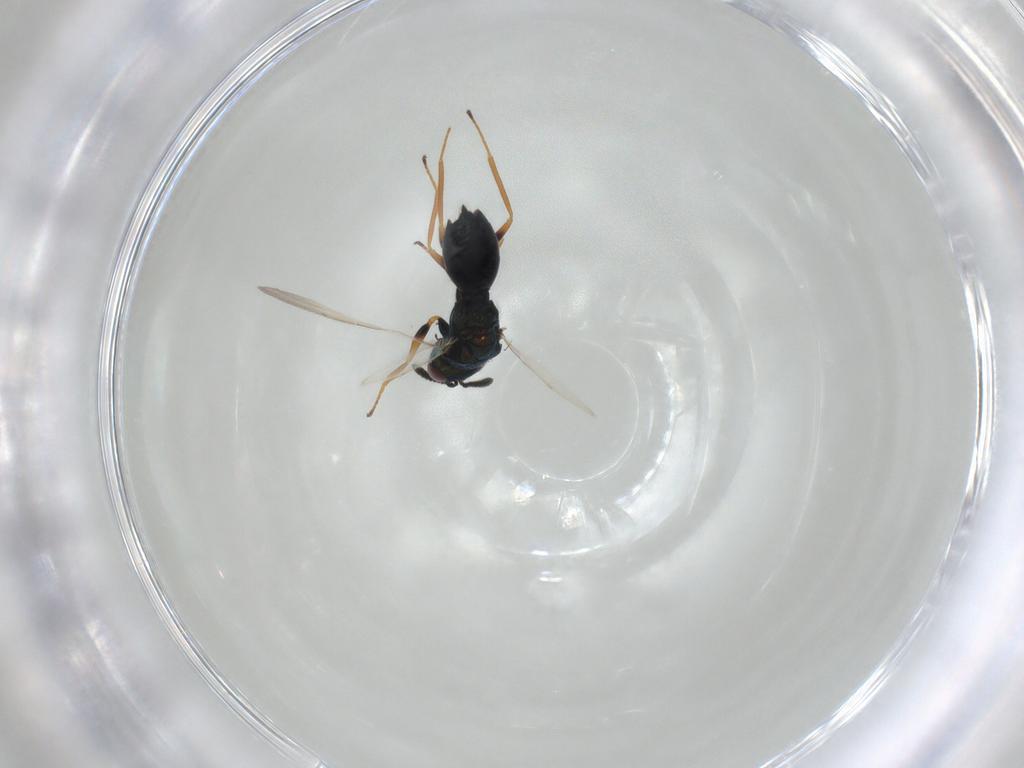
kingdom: Animalia
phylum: Arthropoda
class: Insecta
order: Hymenoptera
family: Chalcidoidea_incertae_sedis
